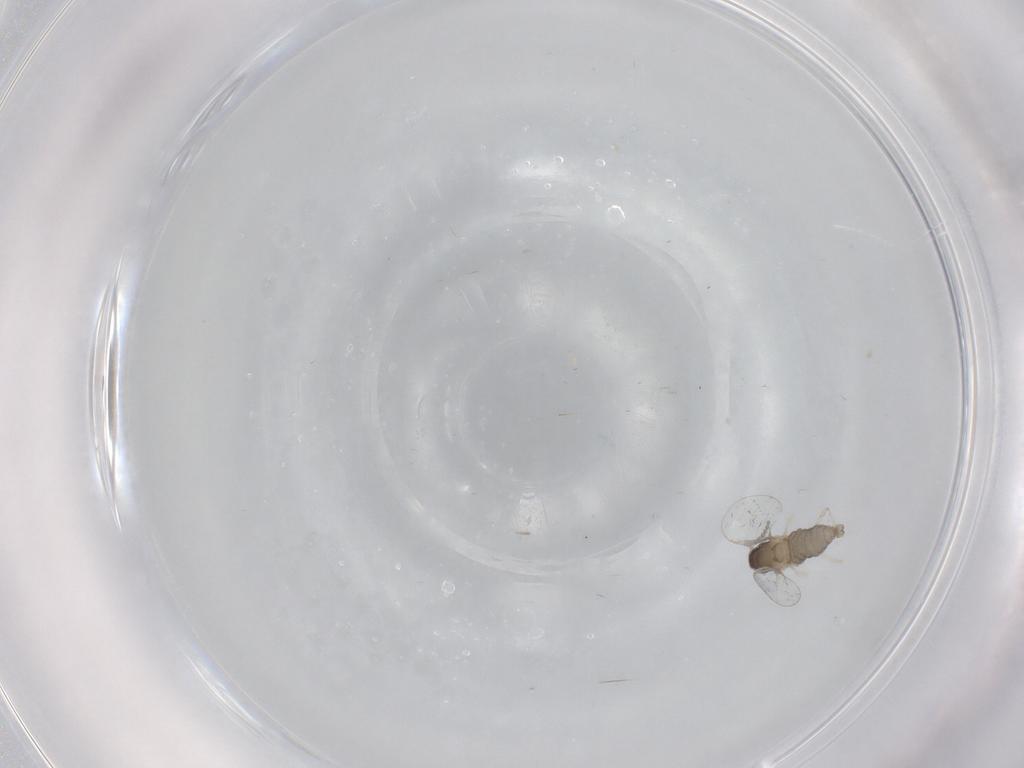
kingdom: Animalia
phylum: Arthropoda
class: Insecta
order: Diptera
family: Cecidomyiidae
